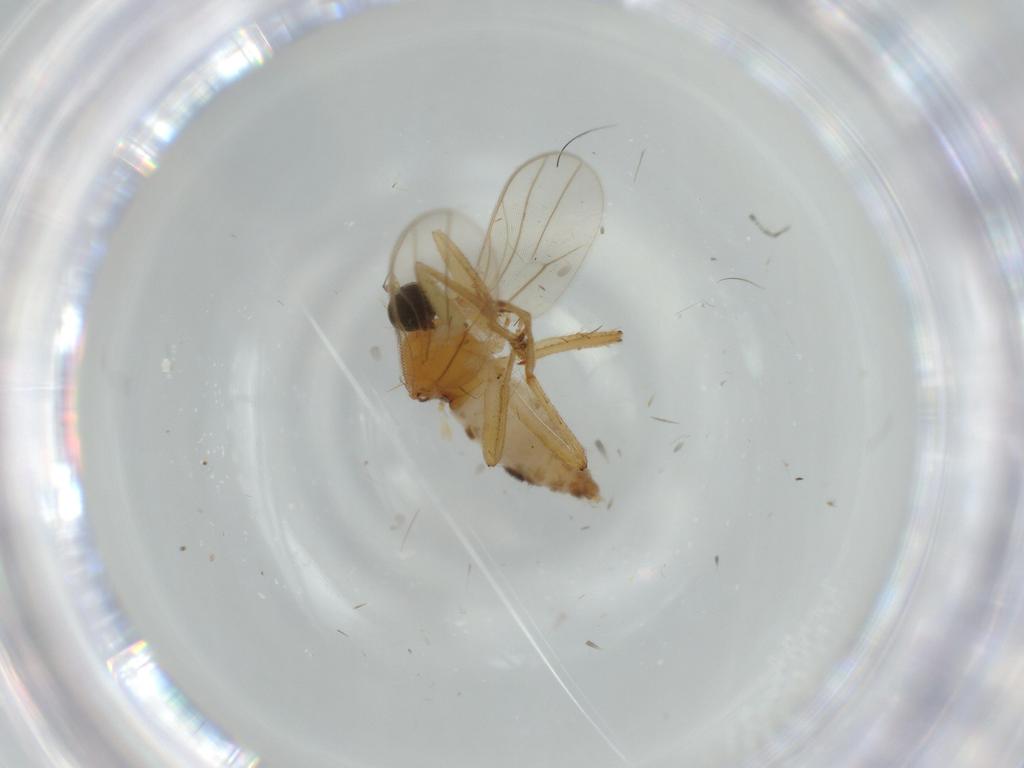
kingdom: Animalia
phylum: Arthropoda
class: Insecta
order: Diptera
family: Hybotidae
